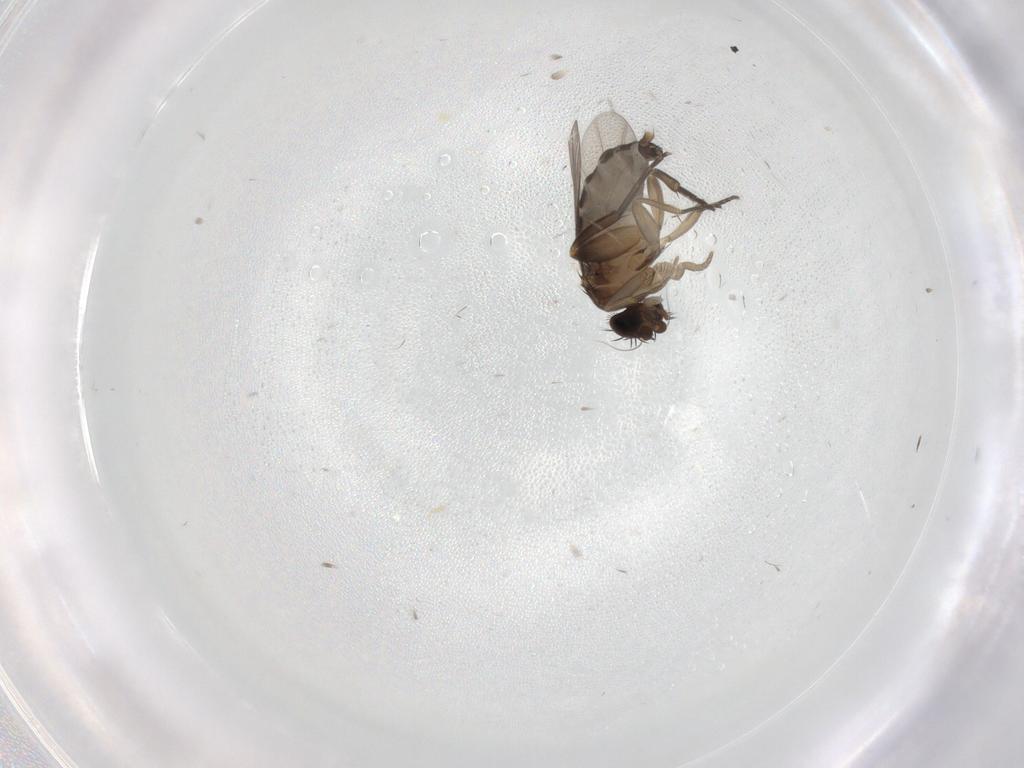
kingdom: Animalia
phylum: Arthropoda
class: Insecta
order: Diptera
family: Phoridae
